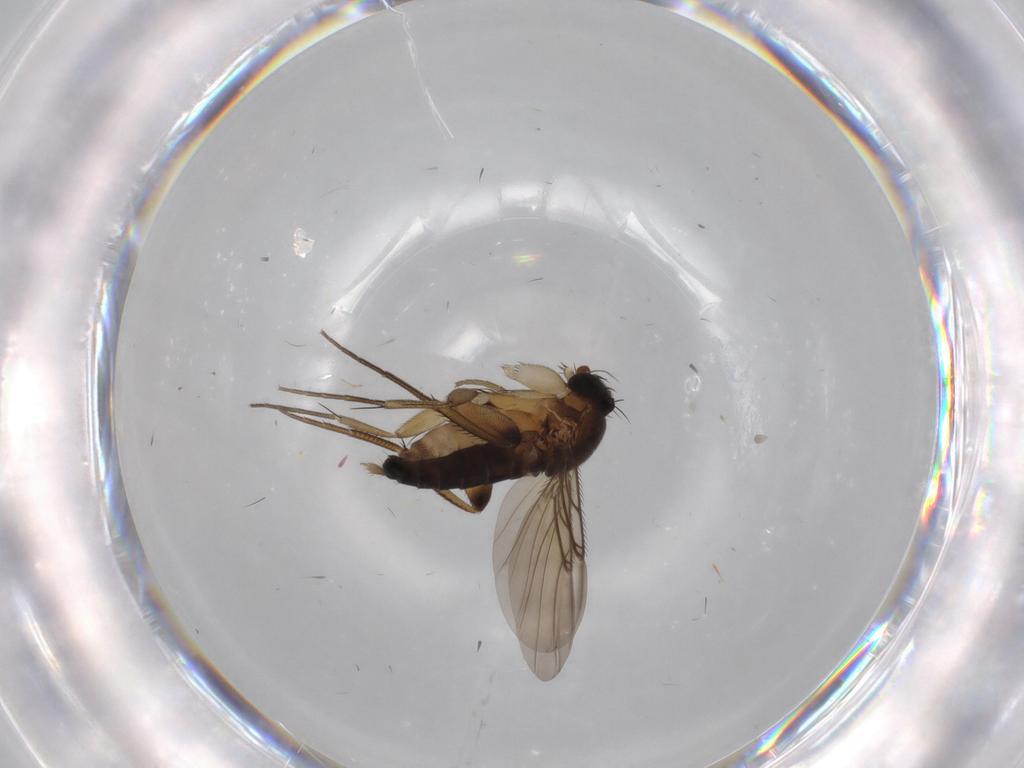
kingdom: Animalia
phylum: Arthropoda
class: Insecta
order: Diptera
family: Phoridae
